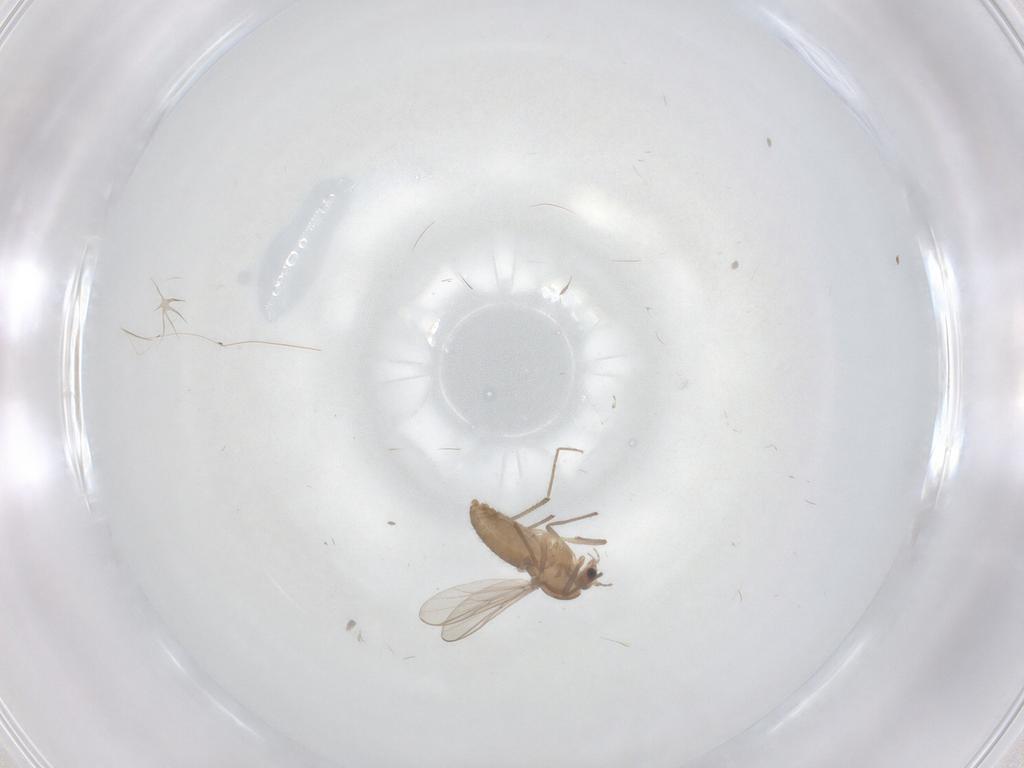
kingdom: Animalia
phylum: Arthropoda
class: Insecta
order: Diptera
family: Chironomidae
